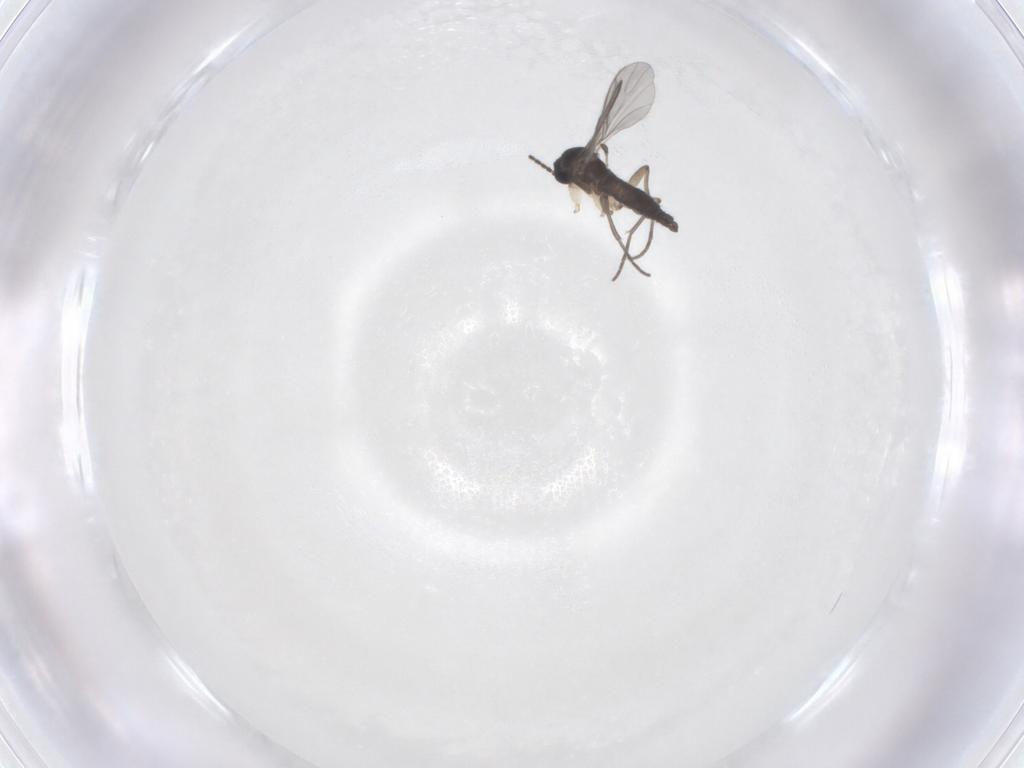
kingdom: Animalia
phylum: Arthropoda
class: Insecta
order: Diptera
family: Sciaridae
